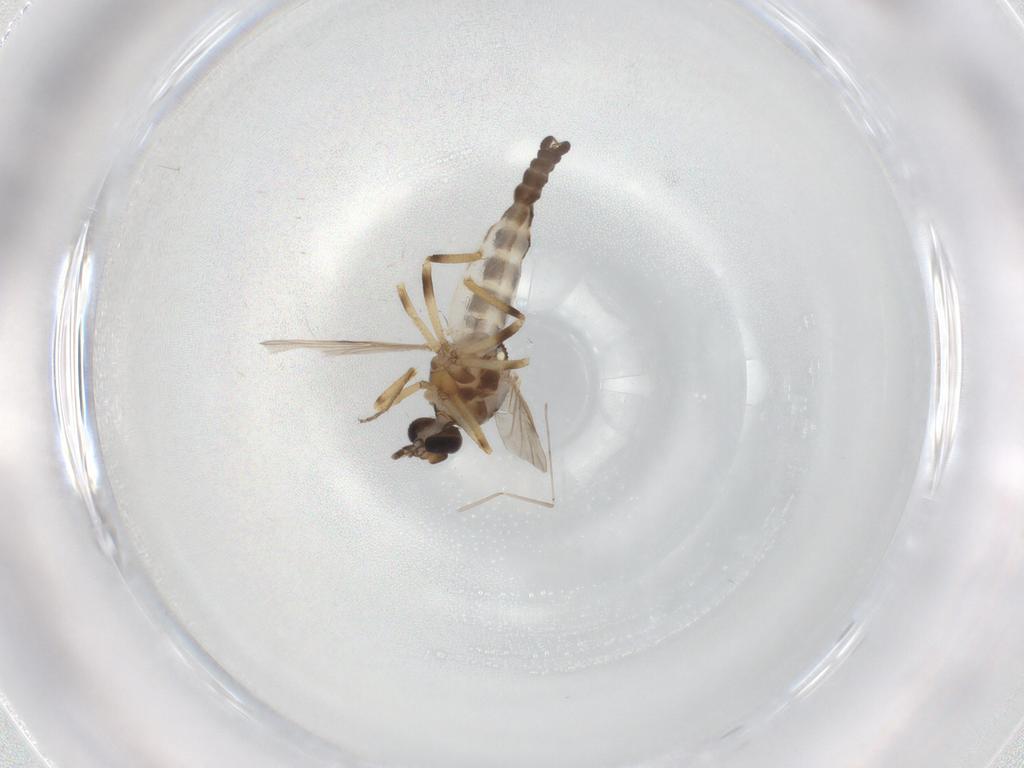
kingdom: Animalia
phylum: Arthropoda
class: Insecta
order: Diptera
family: Ceratopogonidae
